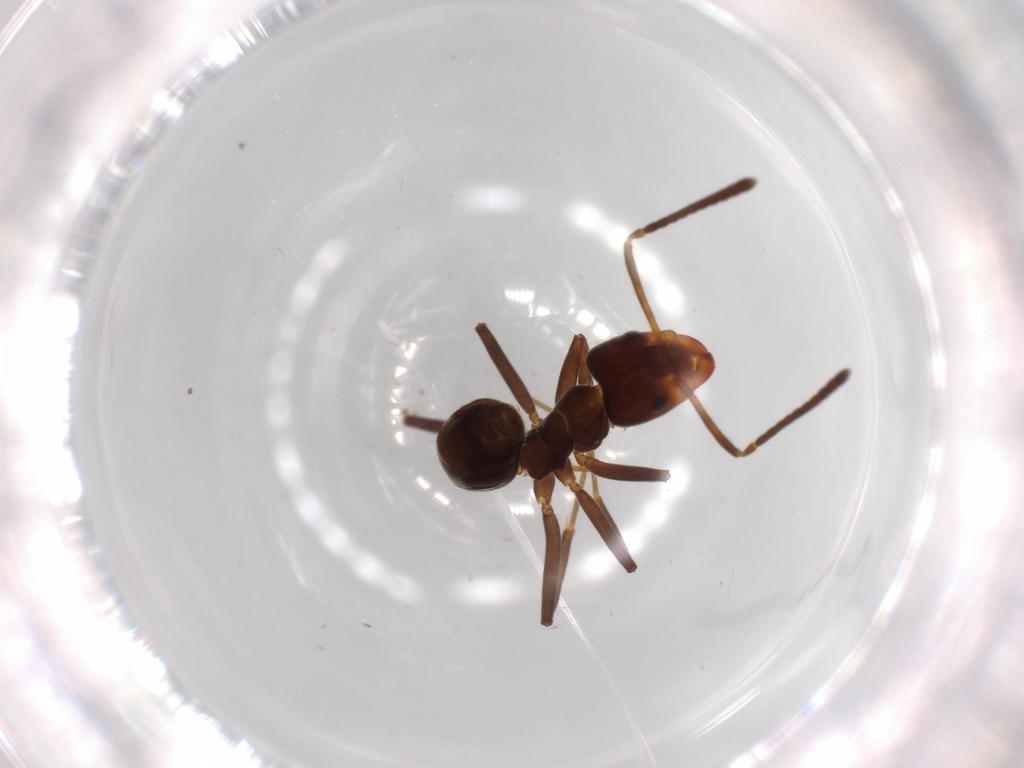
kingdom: Animalia
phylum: Arthropoda
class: Insecta
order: Hymenoptera
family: Formicidae
